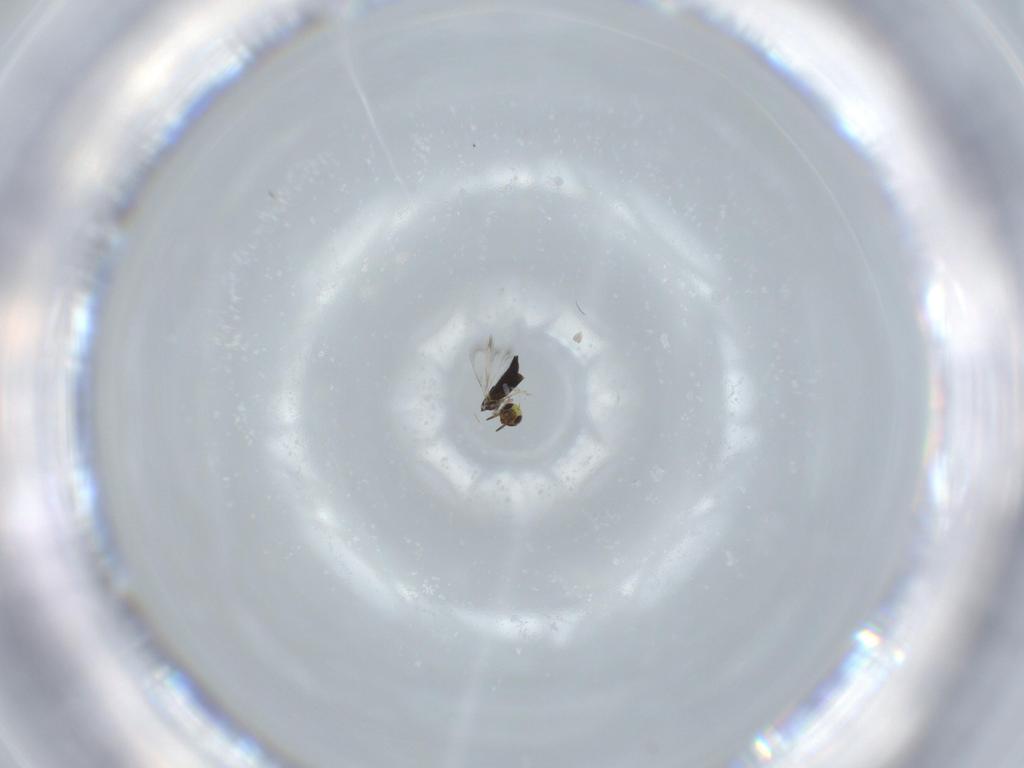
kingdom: Animalia
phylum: Arthropoda
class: Insecta
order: Hymenoptera
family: Signiphoridae
